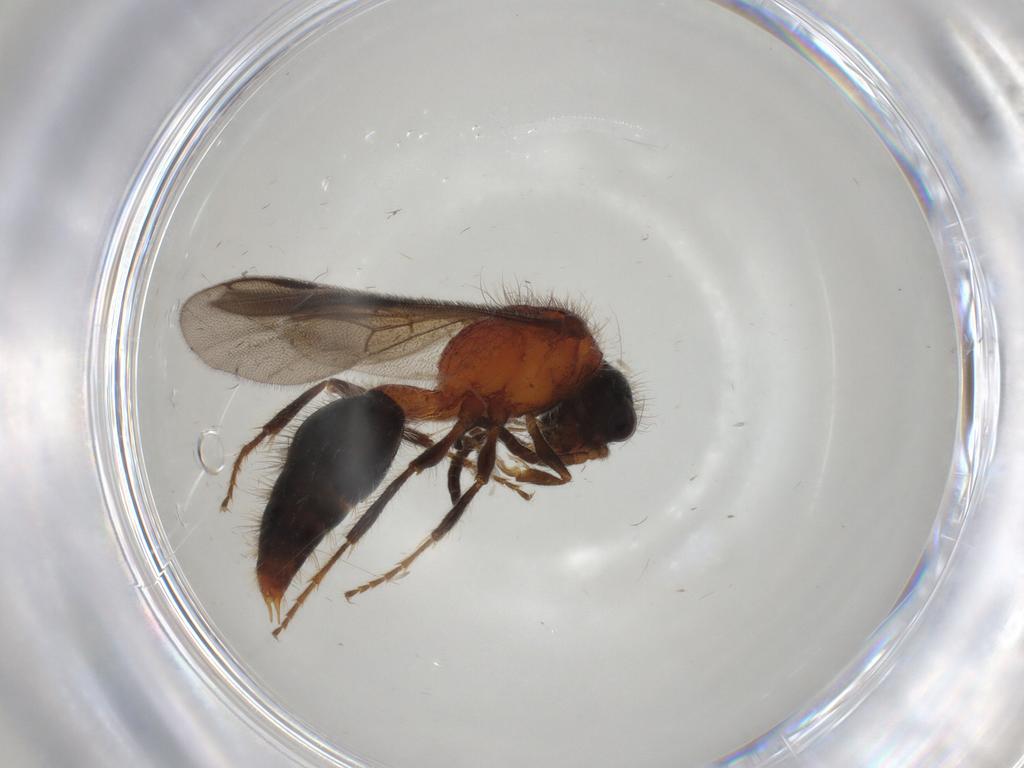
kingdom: Animalia
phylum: Arthropoda
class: Insecta
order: Hymenoptera
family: Mutillidae
